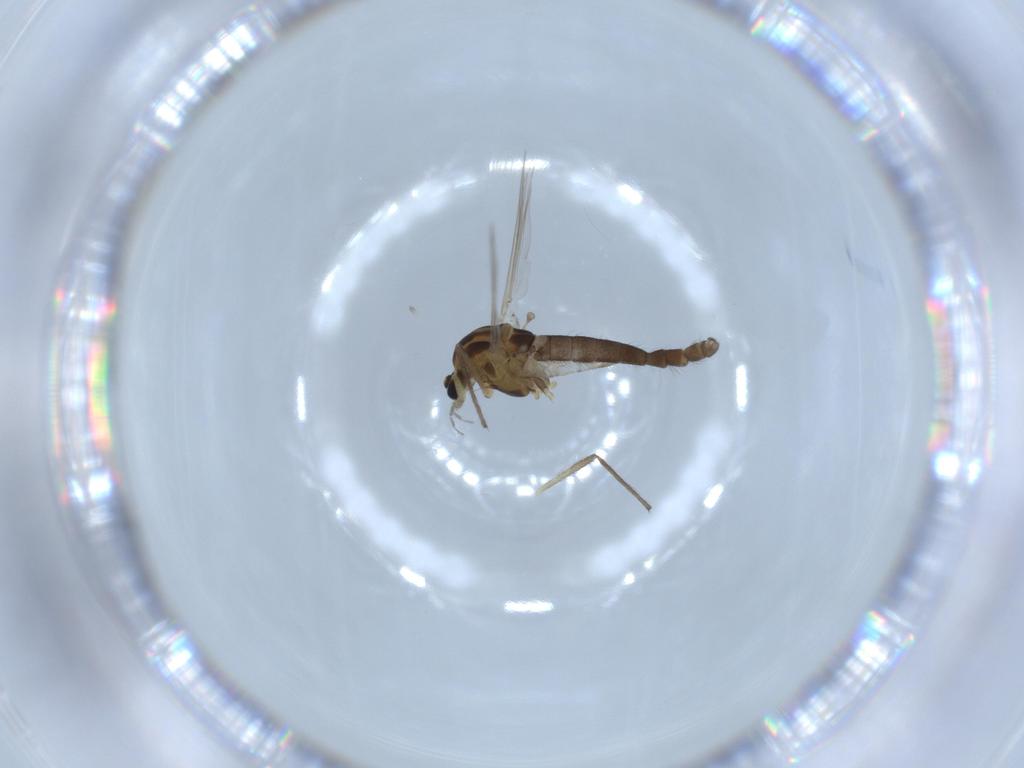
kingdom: Animalia
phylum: Arthropoda
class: Insecta
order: Diptera
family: Chironomidae
